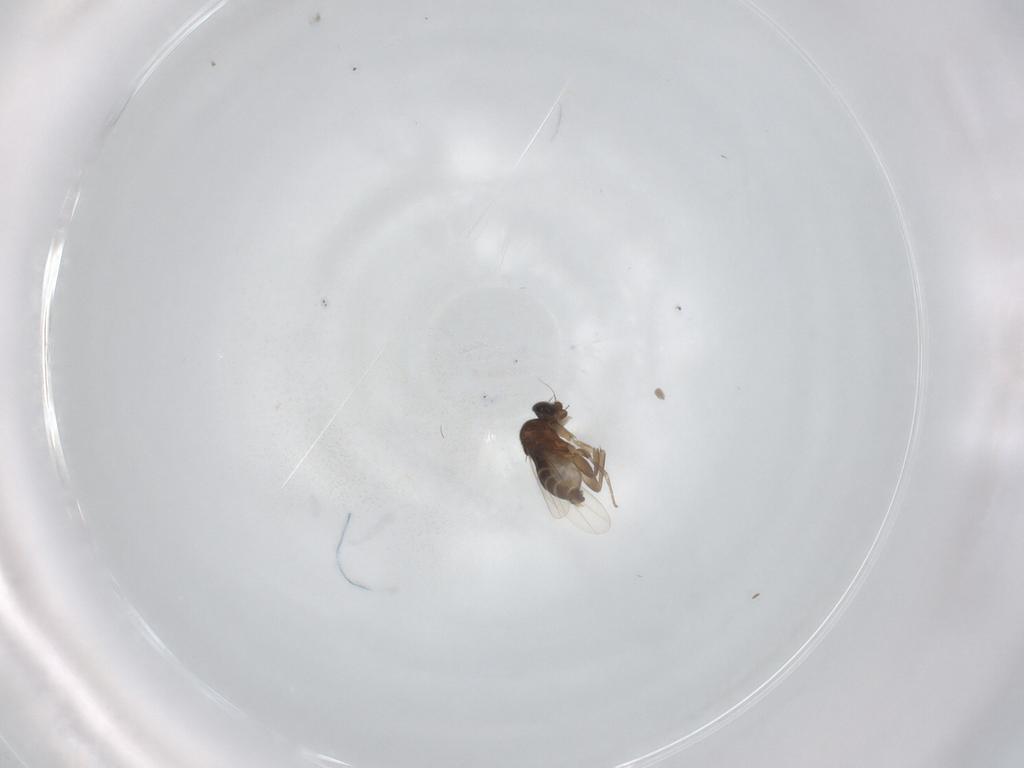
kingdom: Animalia
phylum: Arthropoda
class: Insecta
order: Diptera
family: Phoridae
